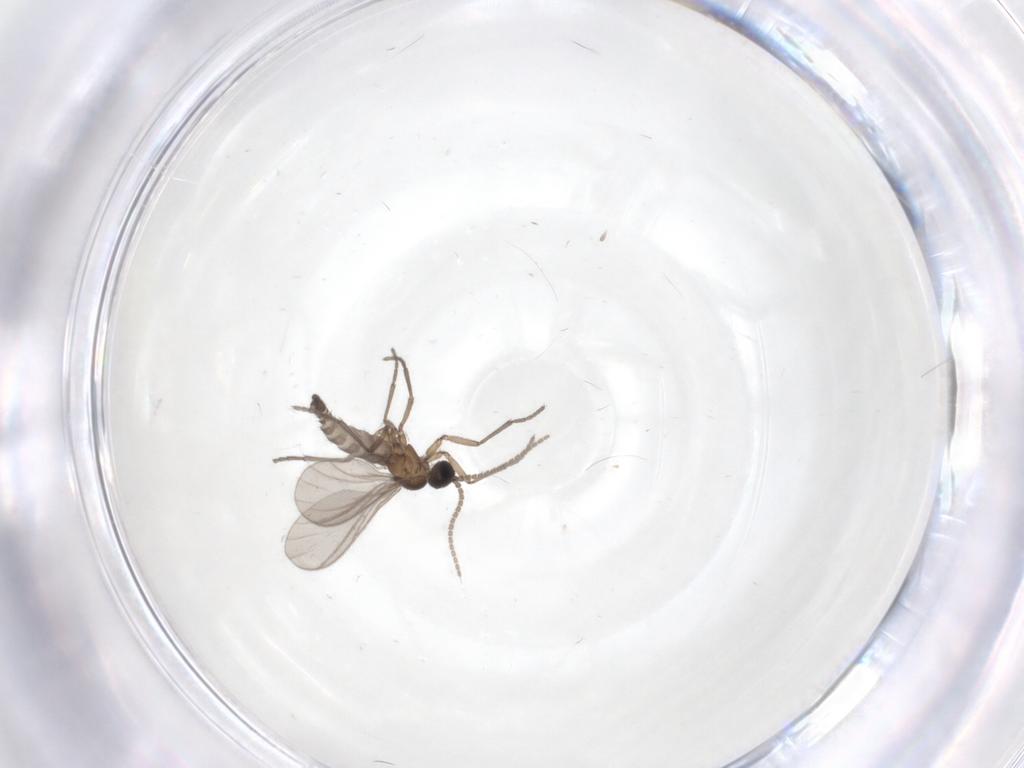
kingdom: Animalia
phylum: Arthropoda
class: Insecta
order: Diptera
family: Sciaridae
